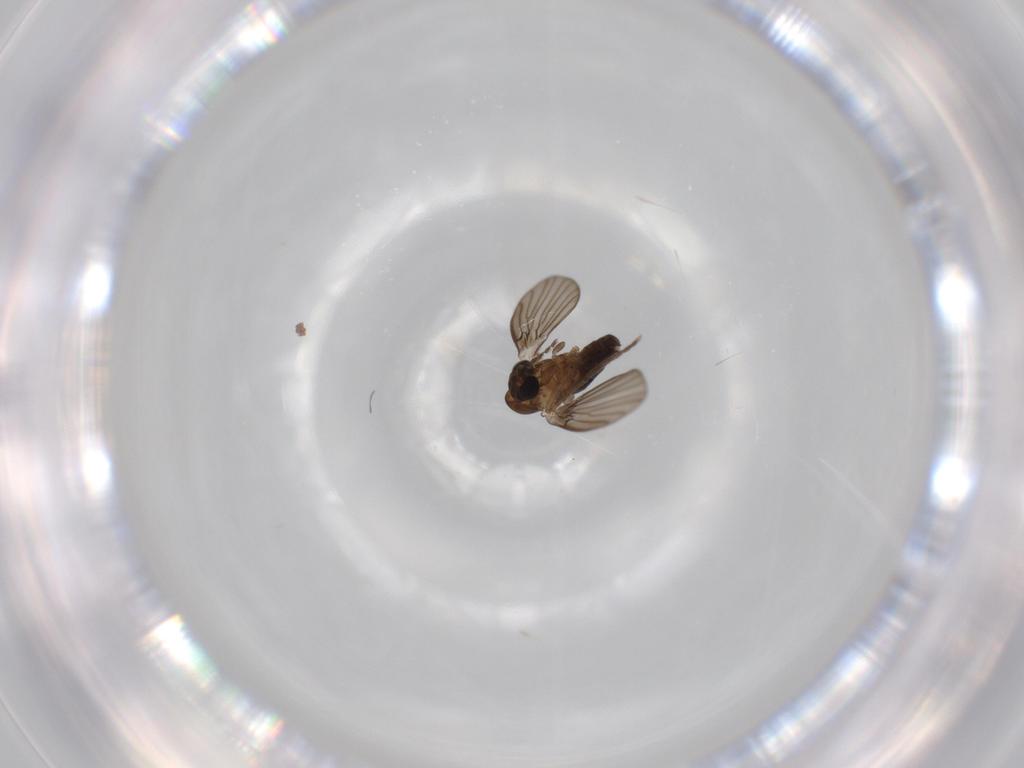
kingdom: Animalia
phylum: Arthropoda
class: Insecta
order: Diptera
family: Psychodidae
